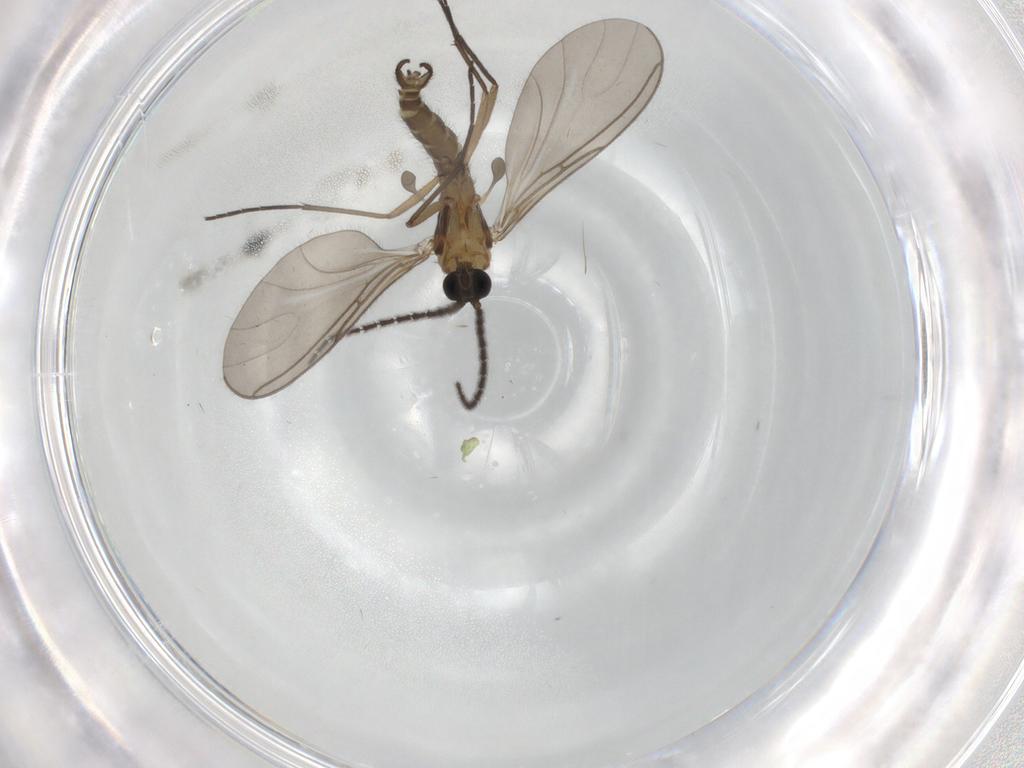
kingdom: Animalia
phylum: Arthropoda
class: Insecta
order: Diptera
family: Sciaridae
